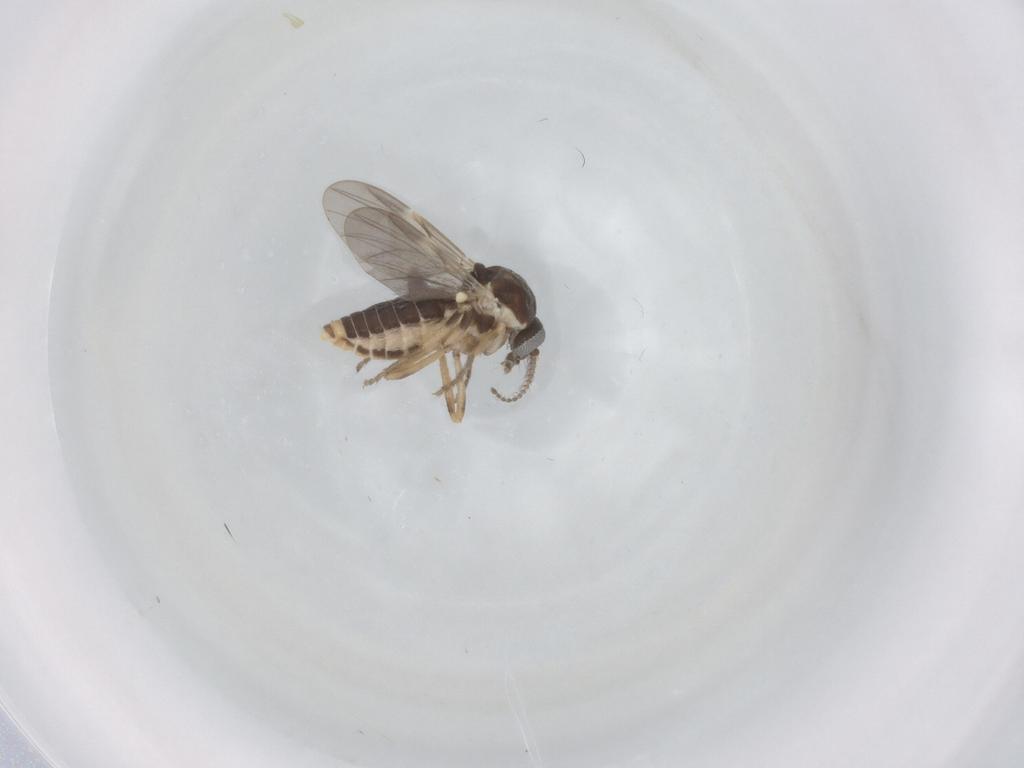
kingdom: Animalia
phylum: Arthropoda
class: Insecta
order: Diptera
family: Ceratopogonidae
